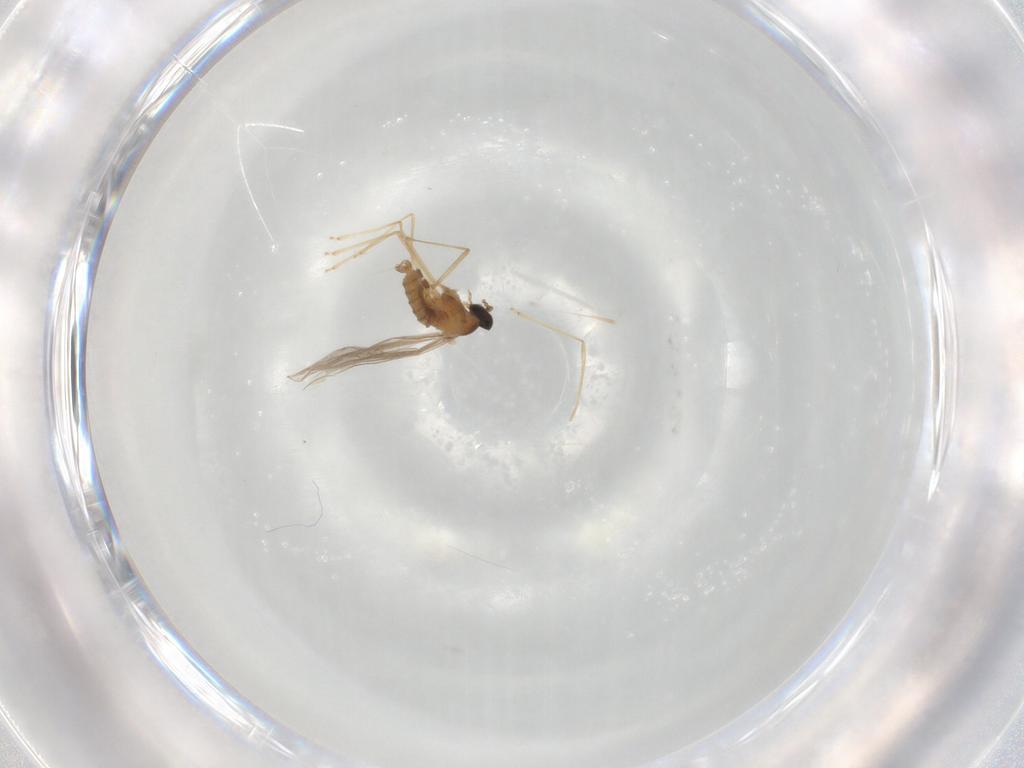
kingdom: Animalia
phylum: Arthropoda
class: Insecta
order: Diptera
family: Cecidomyiidae
